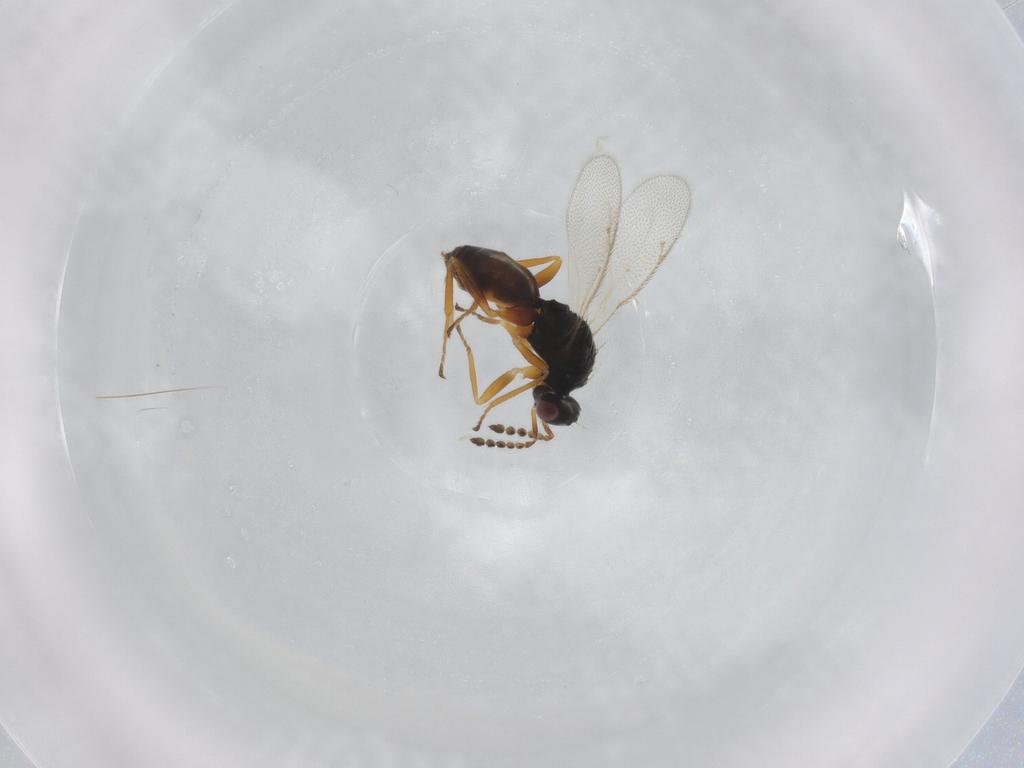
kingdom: Animalia
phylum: Arthropoda
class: Insecta
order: Hymenoptera
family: Eulophidae
